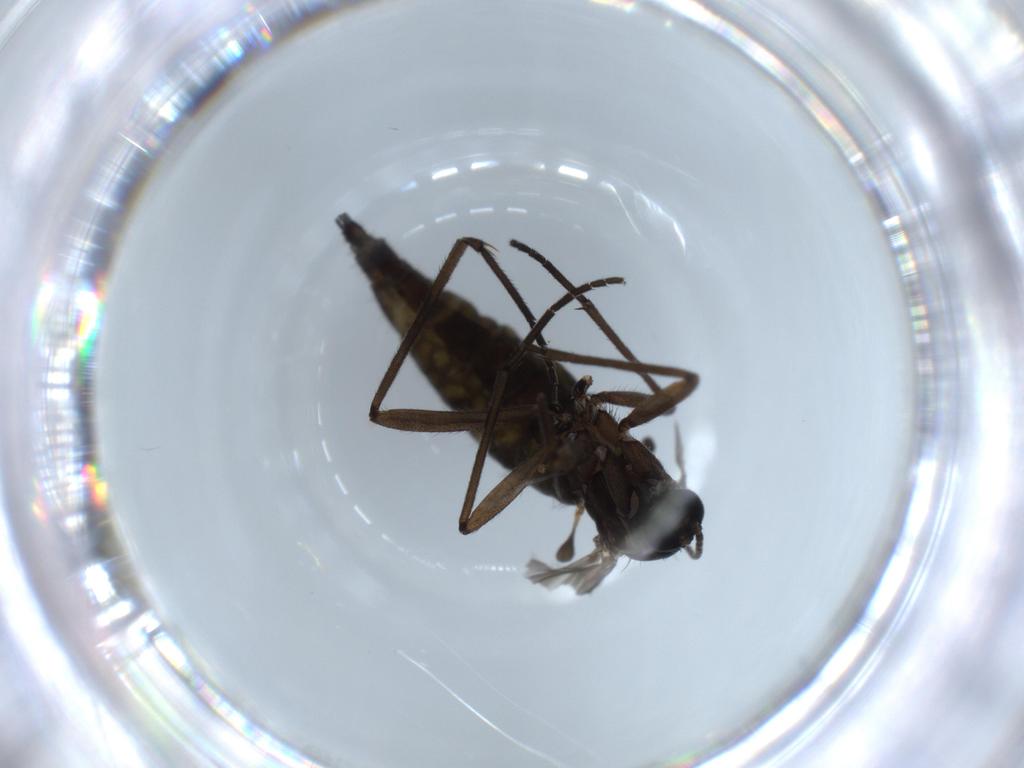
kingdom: Animalia
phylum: Arthropoda
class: Insecta
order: Diptera
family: Sciaridae
